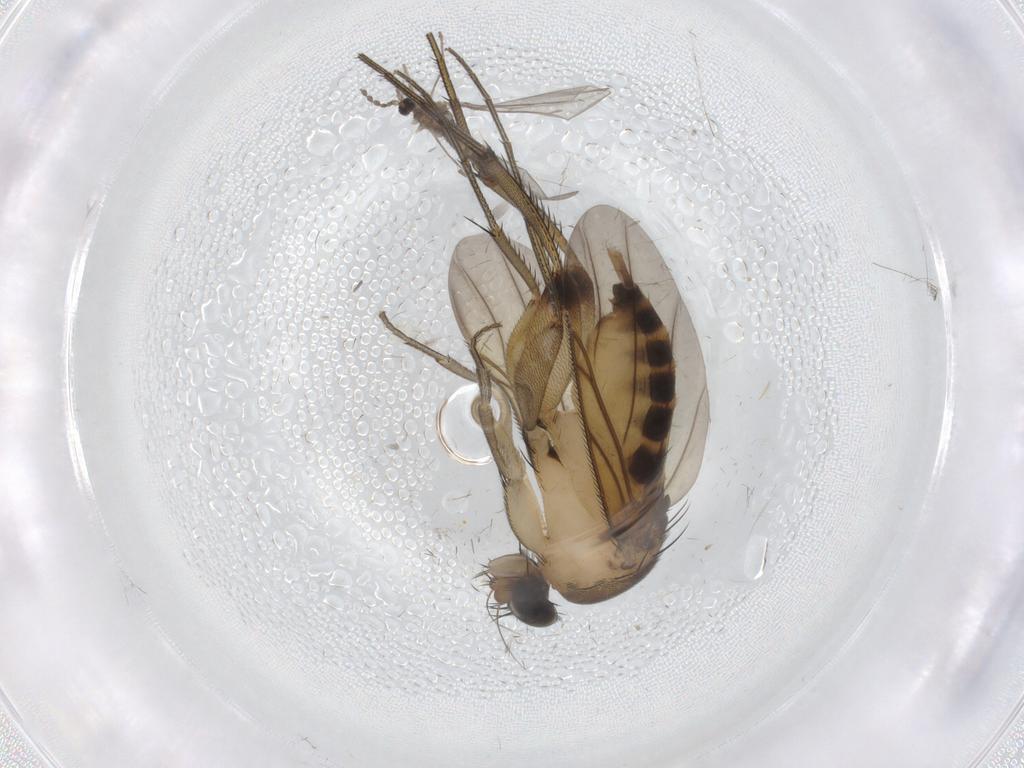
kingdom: Animalia
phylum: Arthropoda
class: Insecta
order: Diptera
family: Phoridae
